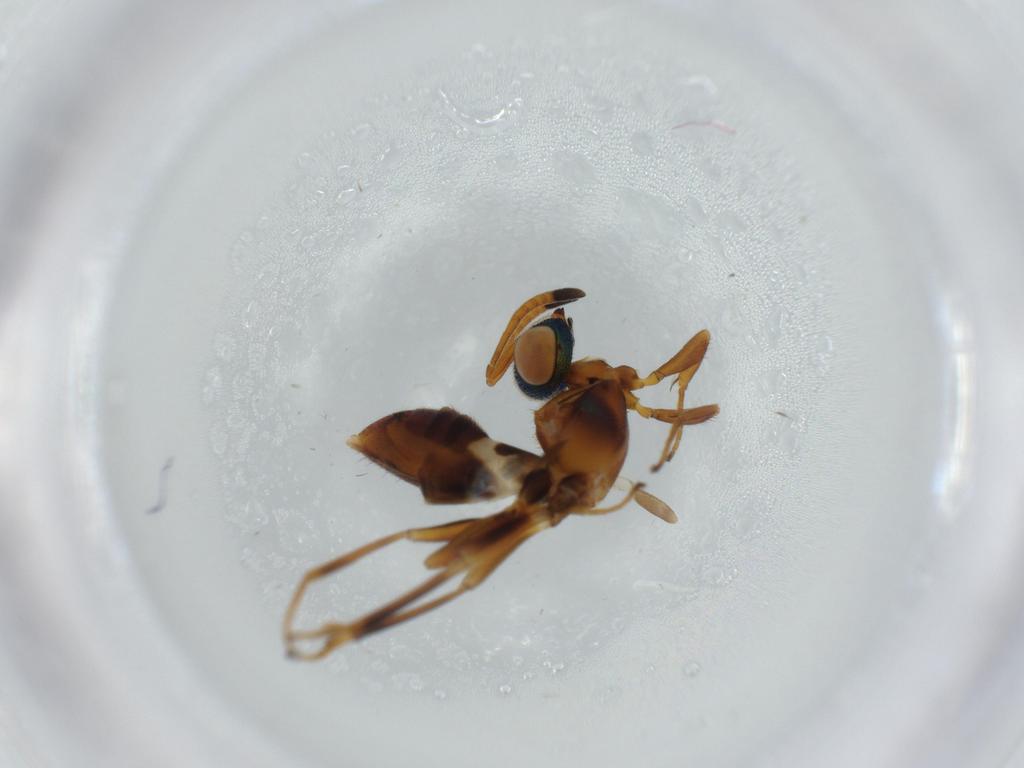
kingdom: Animalia
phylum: Arthropoda
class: Insecta
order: Hymenoptera
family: Eupelmidae
